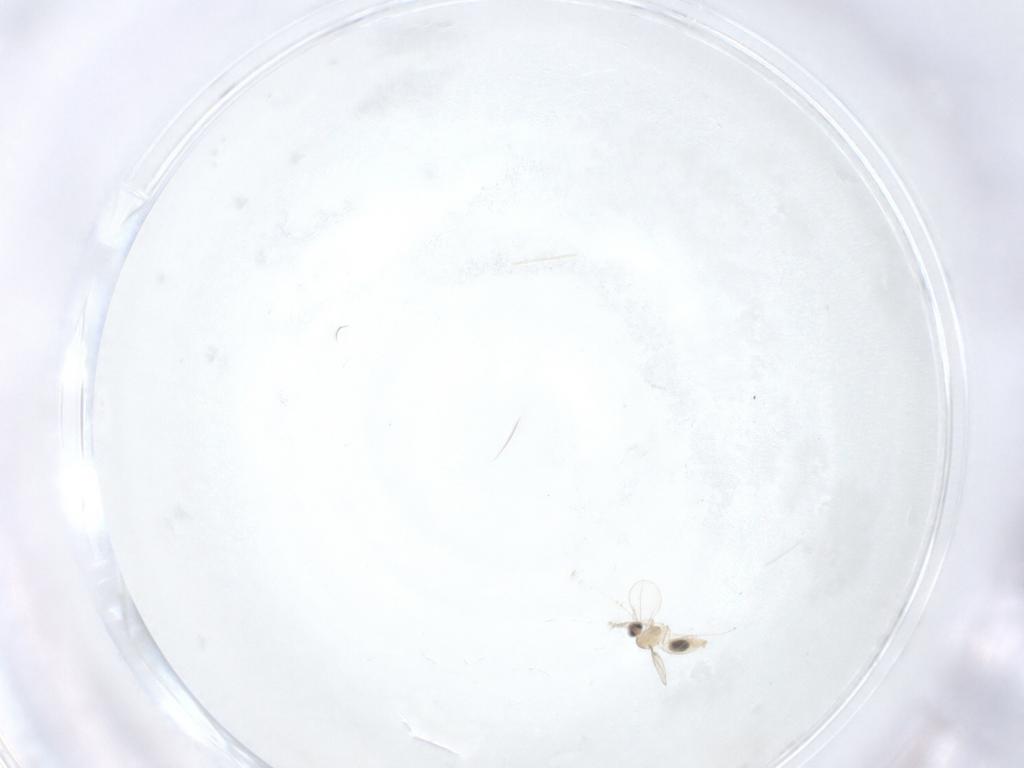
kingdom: Animalia
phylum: Arthropoda
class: Insecta
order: Diptera
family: Cecidomyiidae
